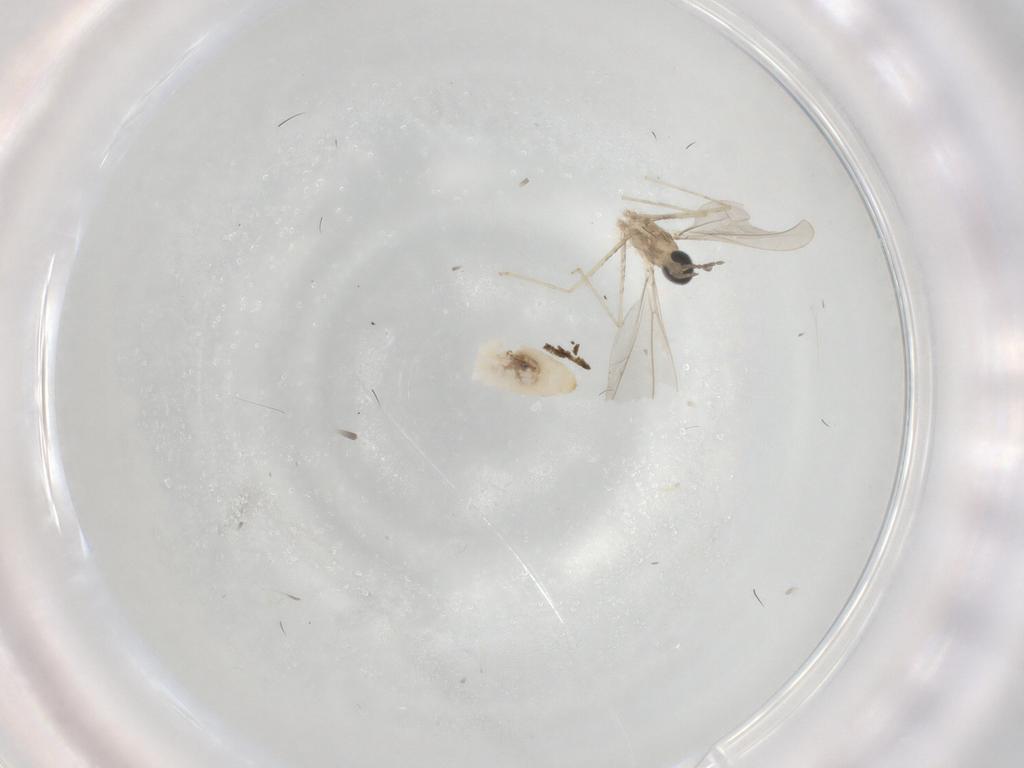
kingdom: Animalia
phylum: Arthropoda
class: Insecta
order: Diptera
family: Cecidomyiidae
